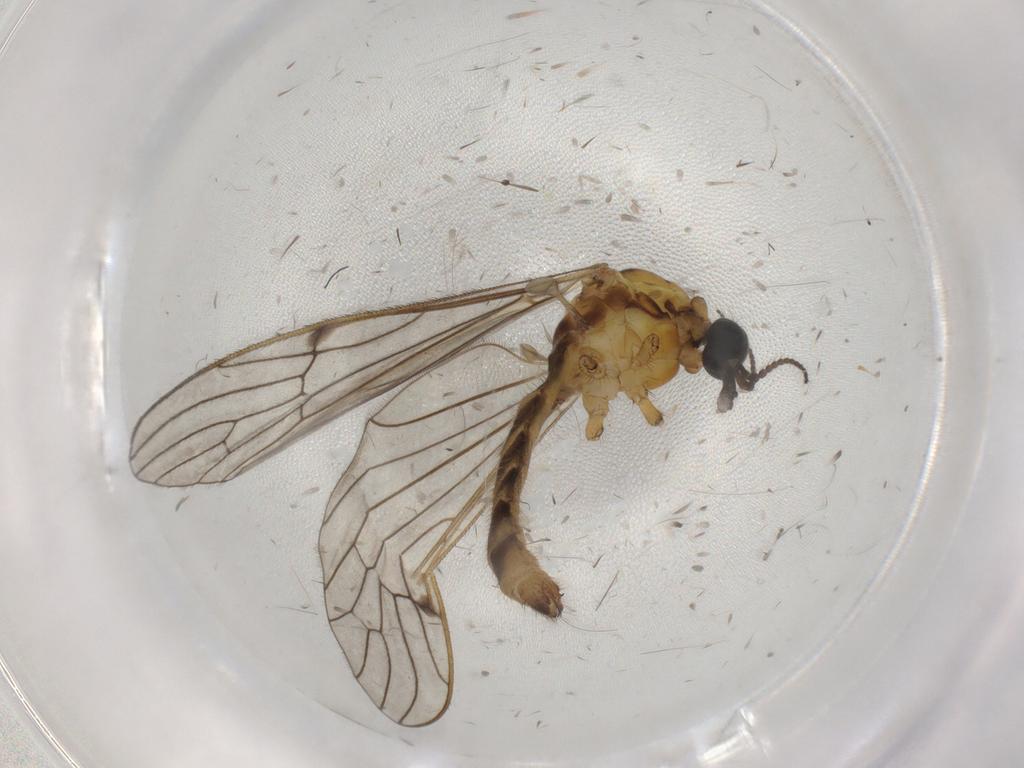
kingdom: Animalia
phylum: Arthropoda
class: Insecta
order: Diptera
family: Limoniidae
